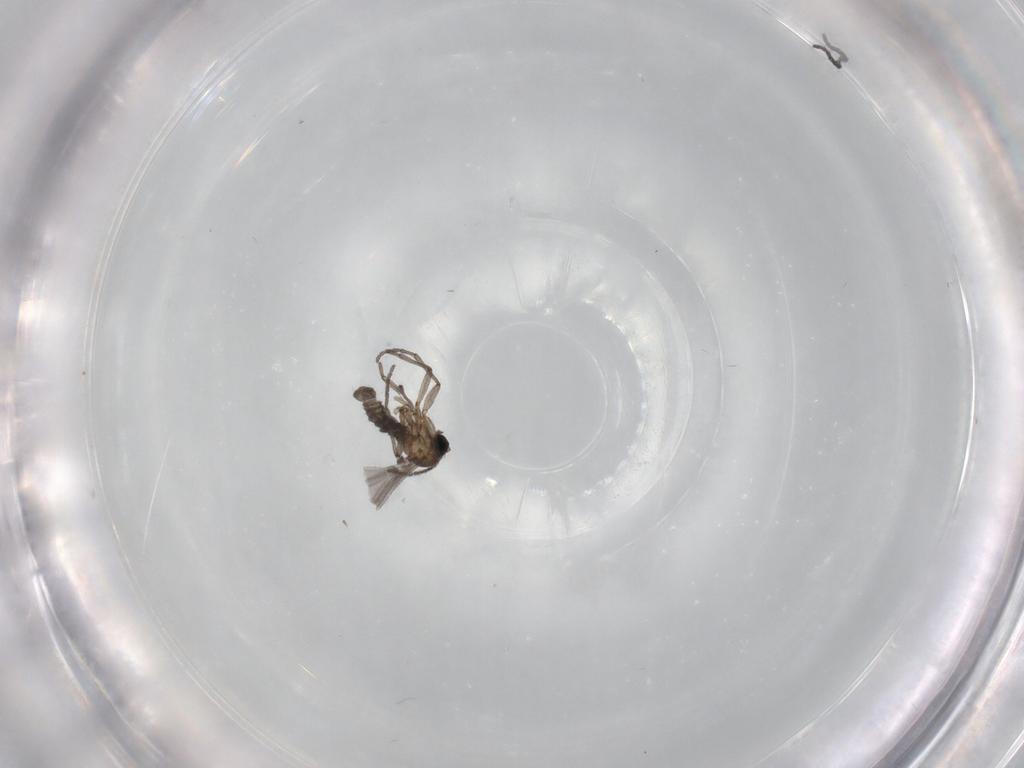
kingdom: Animalia
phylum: Arthropoda
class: Insecta
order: Diptera
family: Sciaridae
